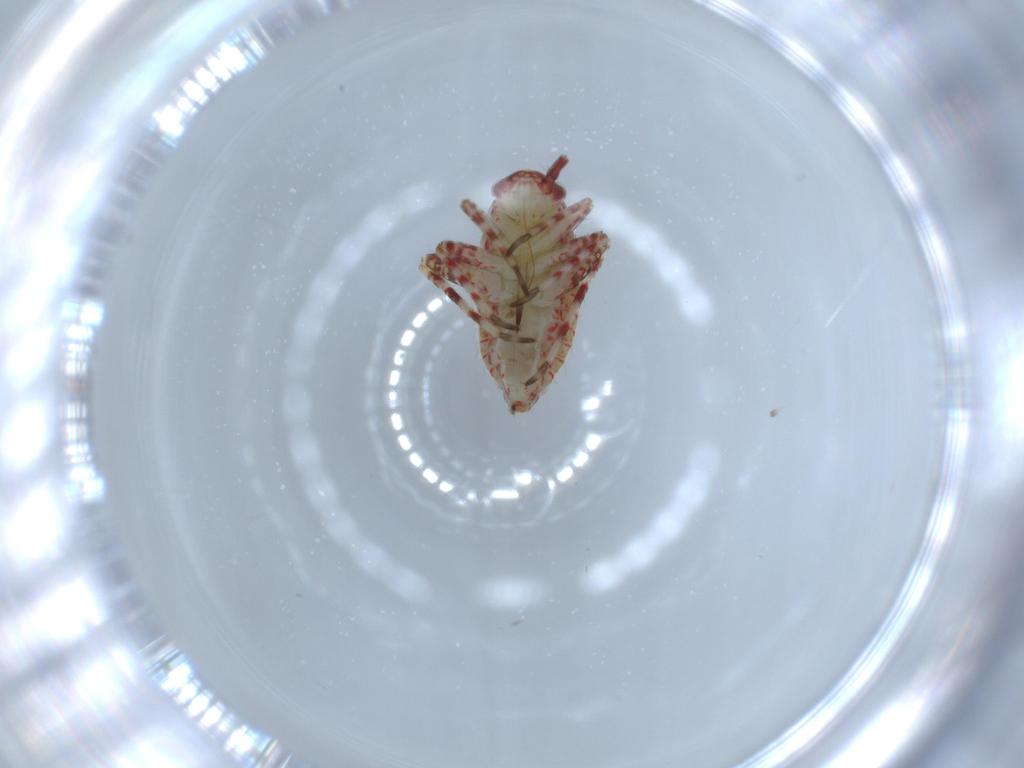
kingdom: Animalia
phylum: Arthropoda
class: Insecta
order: Hemiptera
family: Miridae
